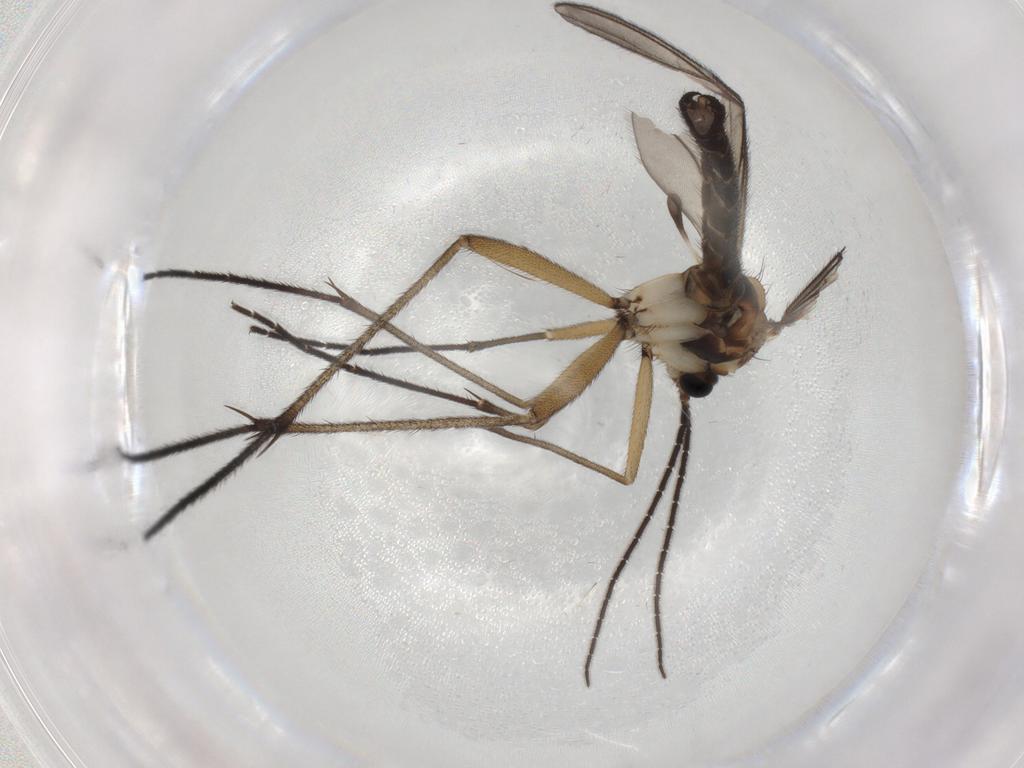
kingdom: Animalia
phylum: Arthropoda
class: Insecta
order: Diptera
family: Sciaridae
